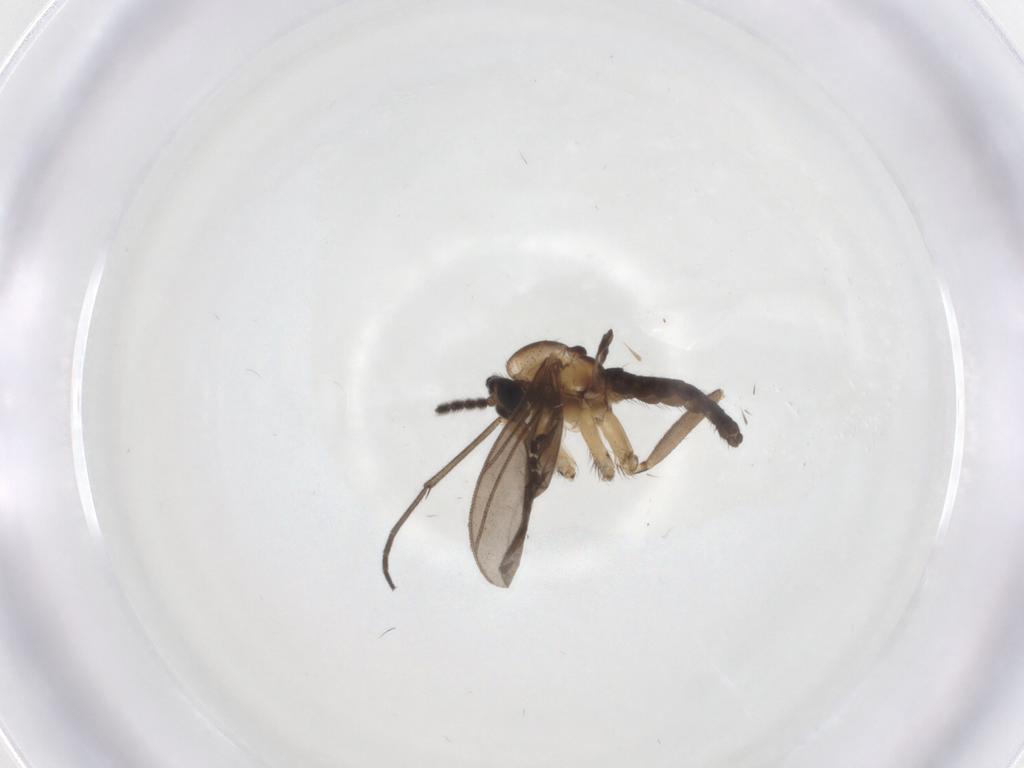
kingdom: Animalia
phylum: Arthropoda
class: Insecta
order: Diptera
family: Sciaridae
